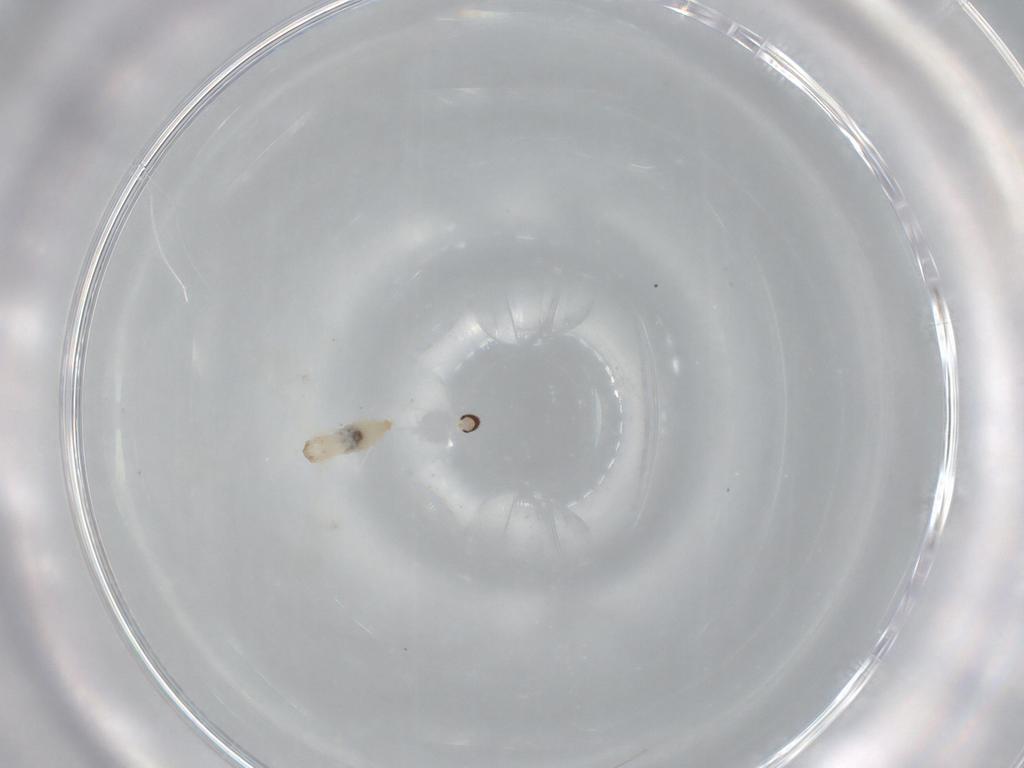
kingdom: Animalia
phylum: Arthropoda
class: Insecta
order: Diptera
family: Cecidomyiidae
